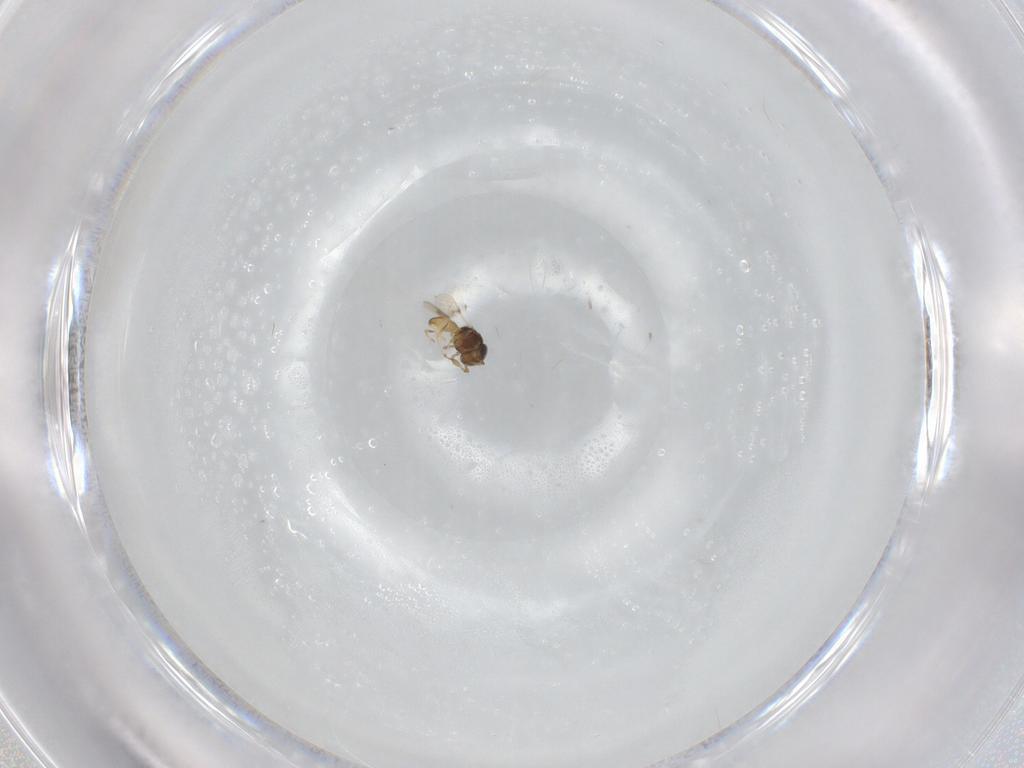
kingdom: Animalia
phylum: Arthropoda
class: Insecta
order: Hymenoptera
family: Scelionidae
